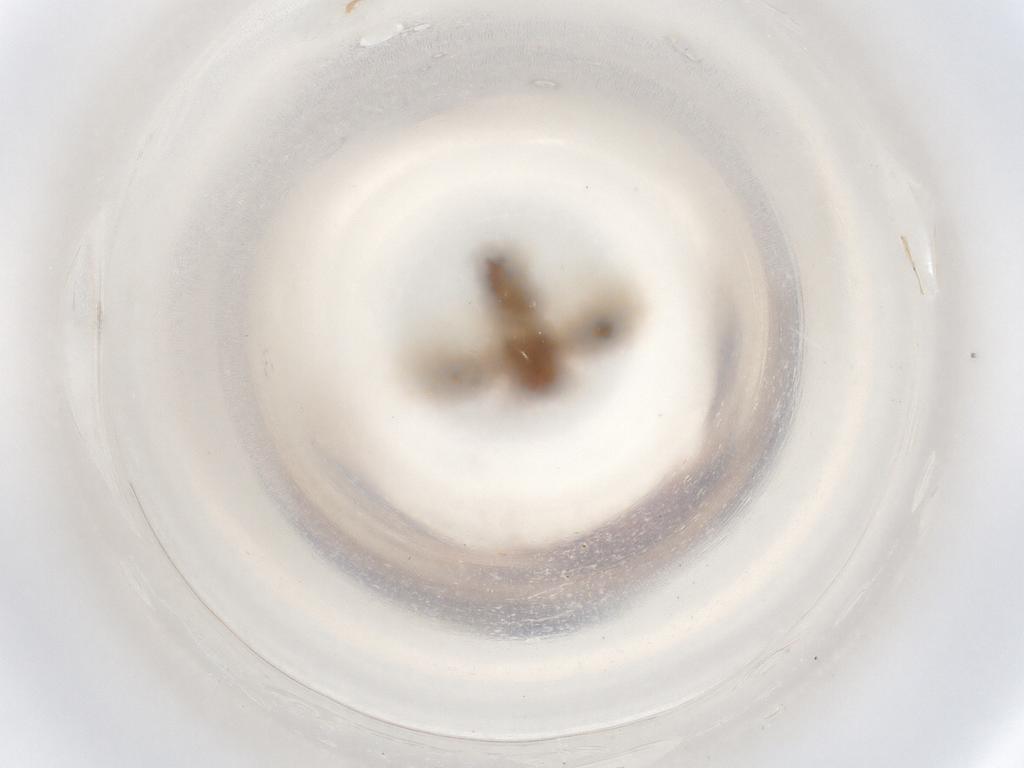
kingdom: Animalia
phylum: Arthropoda
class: Insecta
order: Hemiptera
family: Schizopteridae
